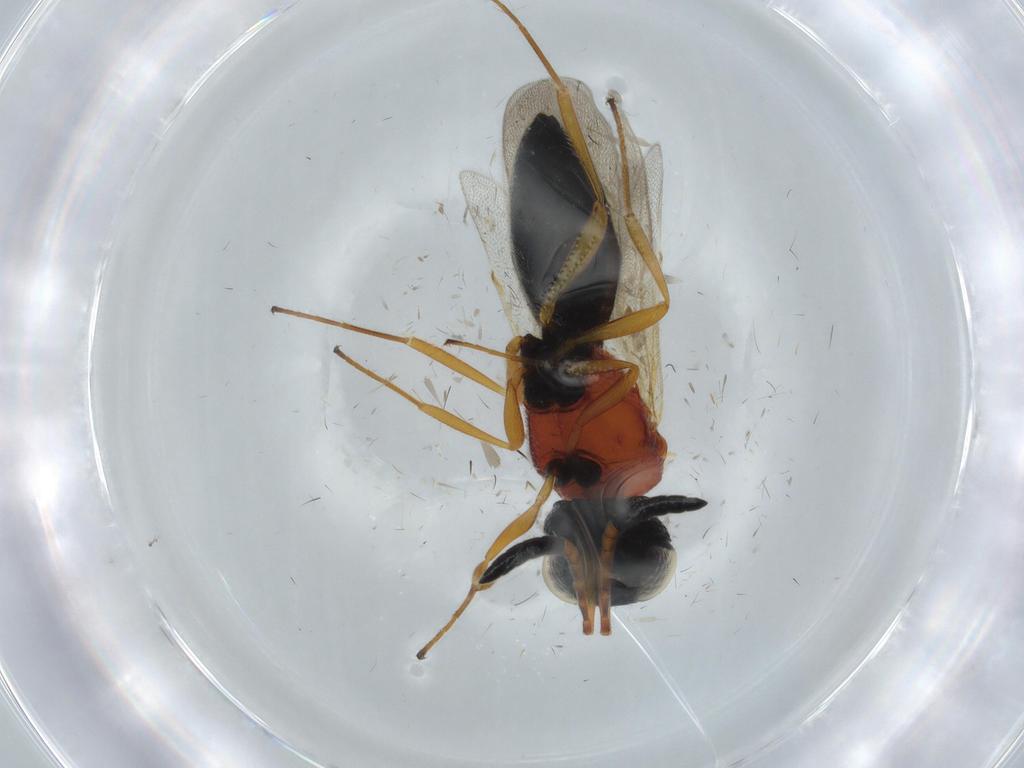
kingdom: Animalia
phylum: Arthropoda
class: Insecta
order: Hymenoptera
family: Scelionidae
